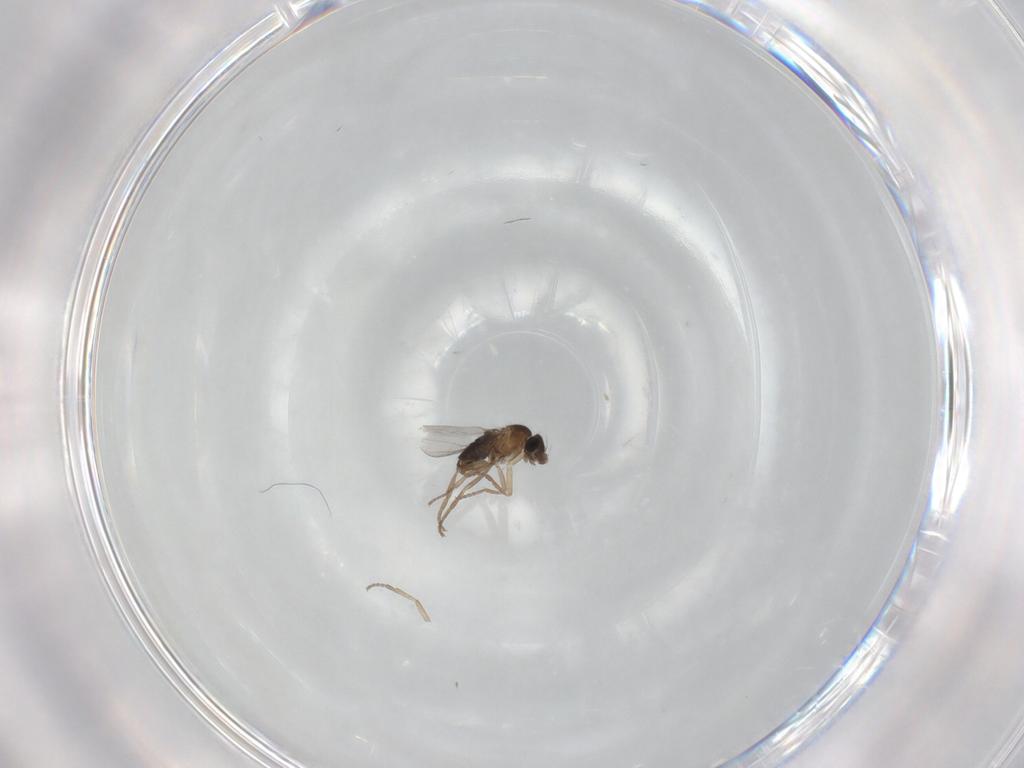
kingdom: Animalia
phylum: Arthropoda
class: Insecta
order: Diptera
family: Phoridae
